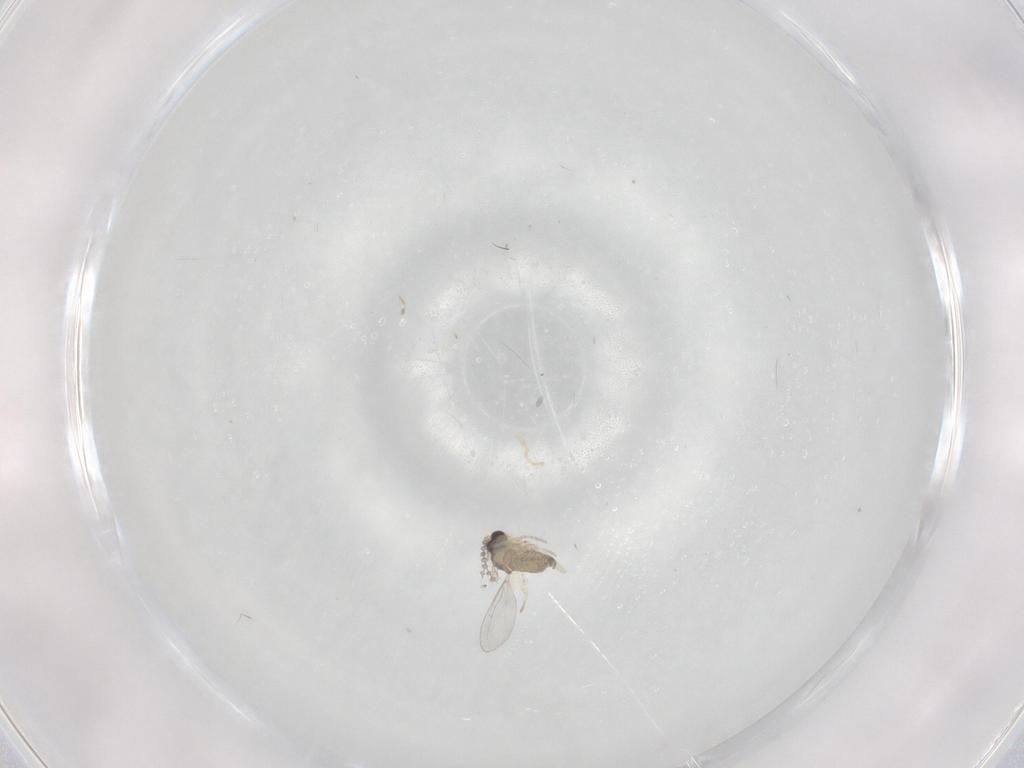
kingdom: Animalia
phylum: Arthropoda
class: Insecta
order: Diptera
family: Cecidomyiidae
